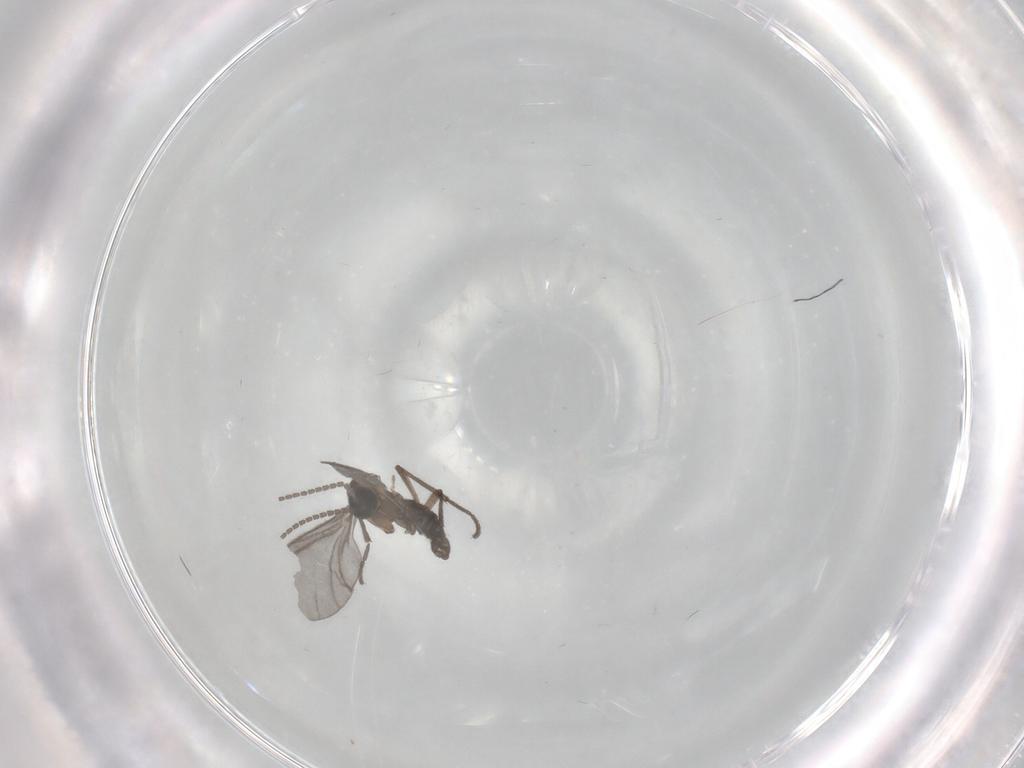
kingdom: Animalia
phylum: Arthropoda
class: Insecta
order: Diptera
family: Sciaridae
